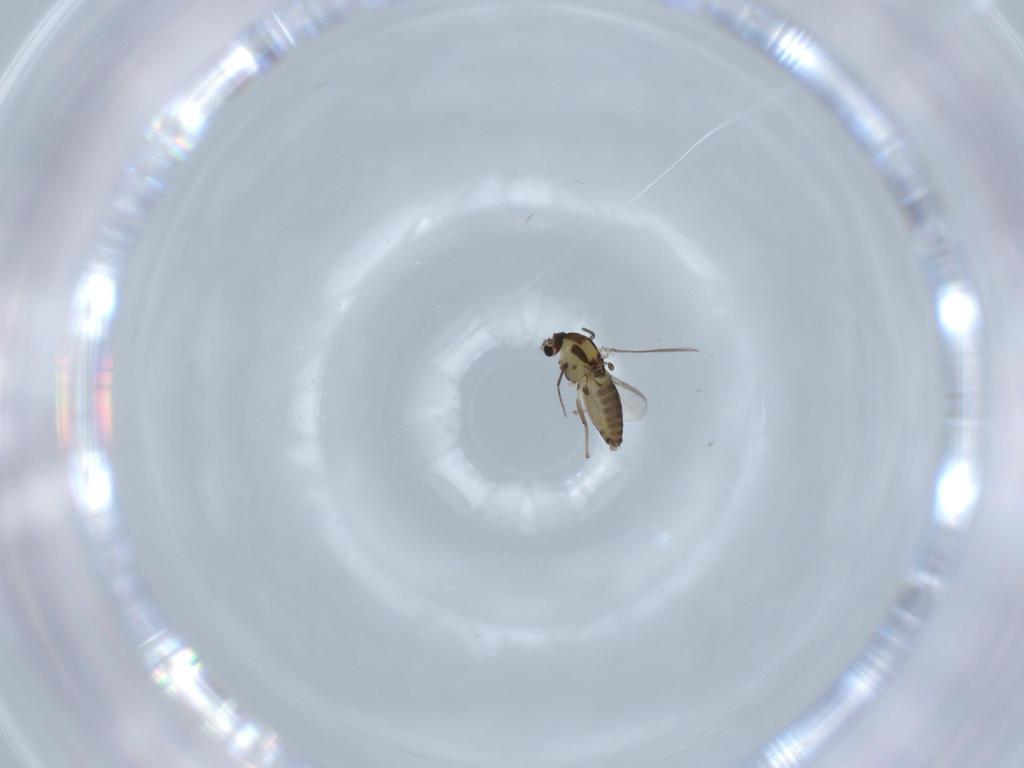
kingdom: Animalia
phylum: Arthropoda
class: Insecta
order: Diptera
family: Chironomidae
